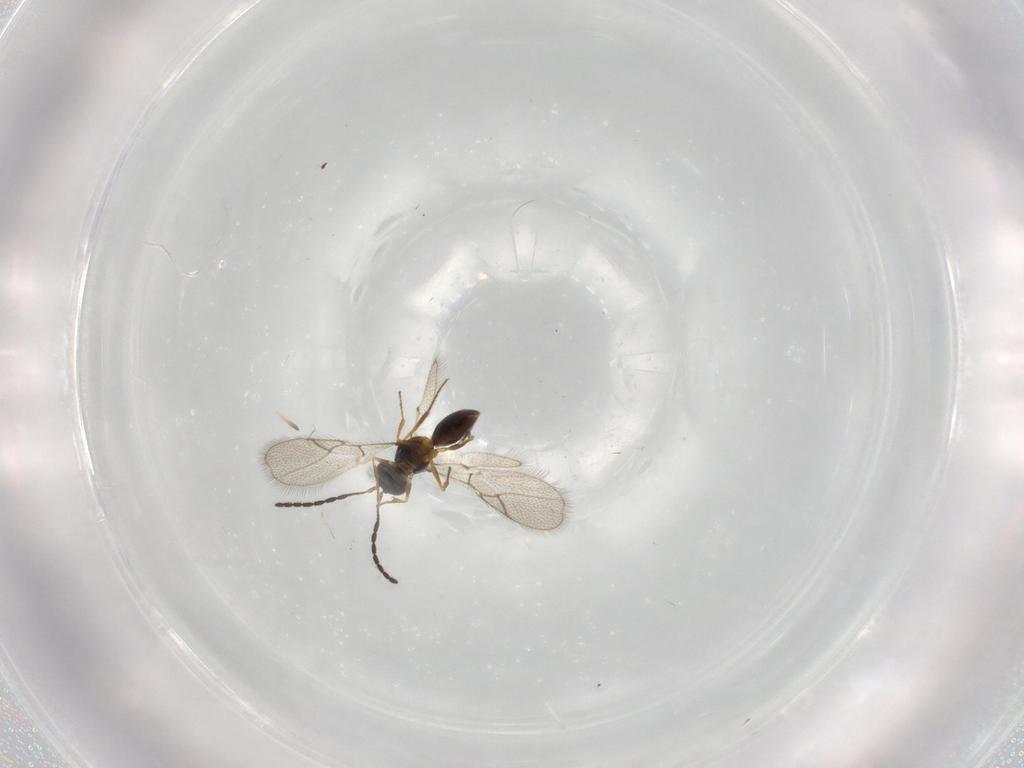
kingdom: Animalia
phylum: Arthropoda
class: Insecta
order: Hymenoptera
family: Figitidae
